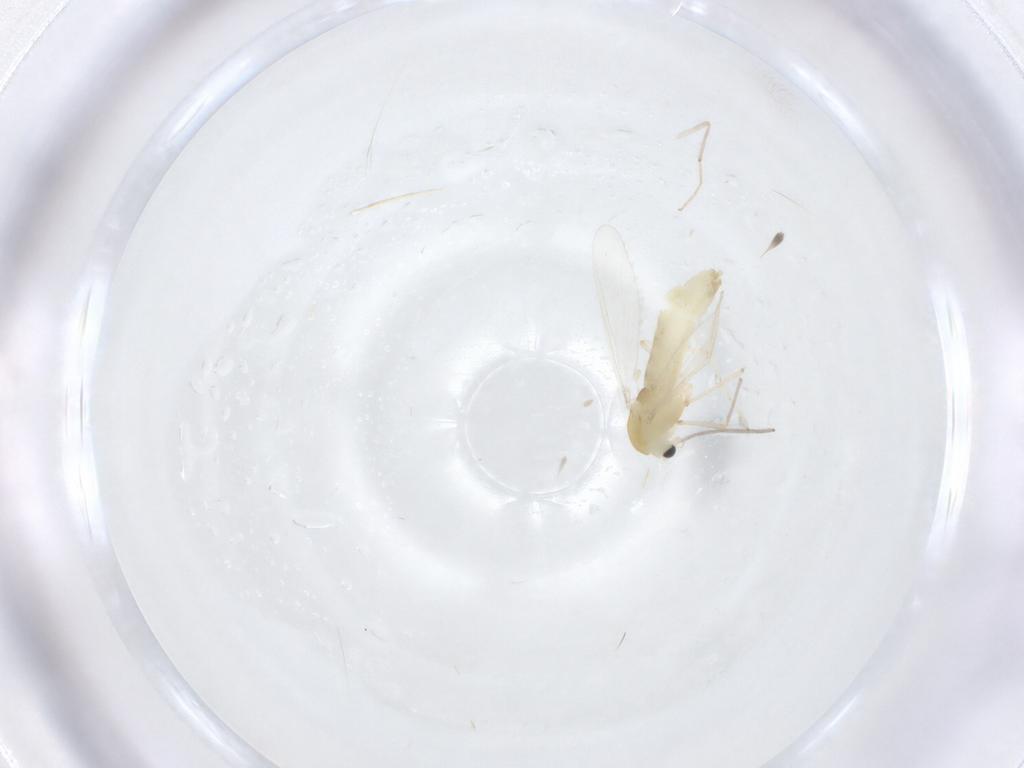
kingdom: Animalia
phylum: Arthropoda
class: Insecta
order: Diptera
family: Chironomidae
